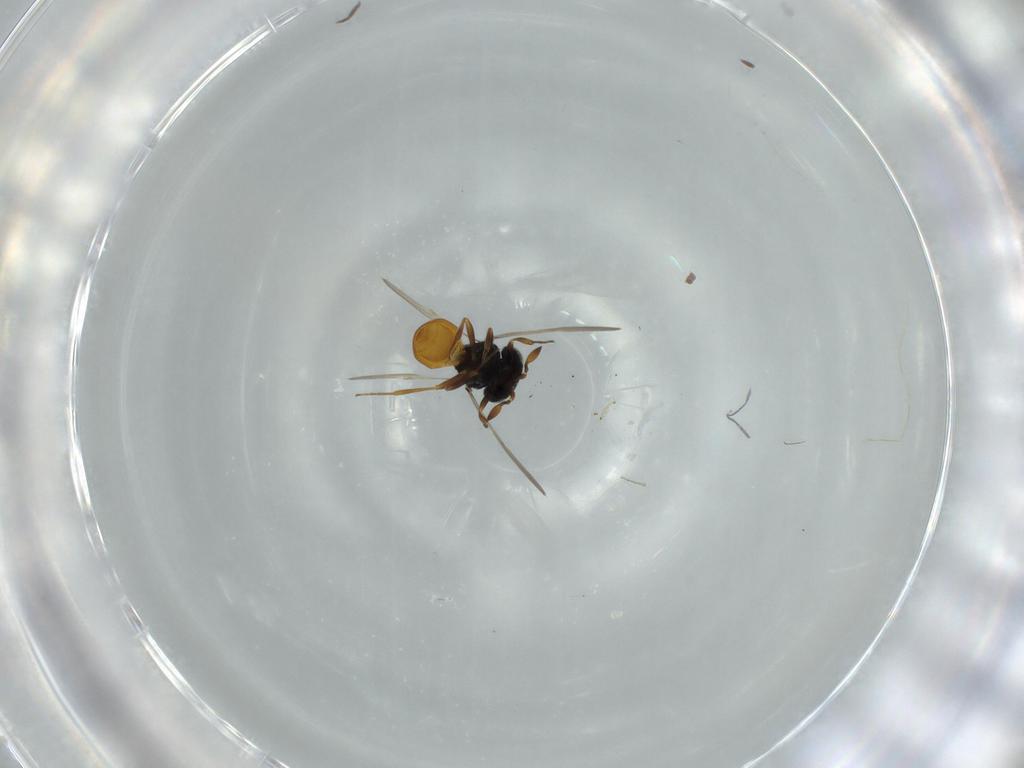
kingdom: Animalia
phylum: Arthropoda
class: Insecta
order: Hymenoptera
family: Scelionidae
